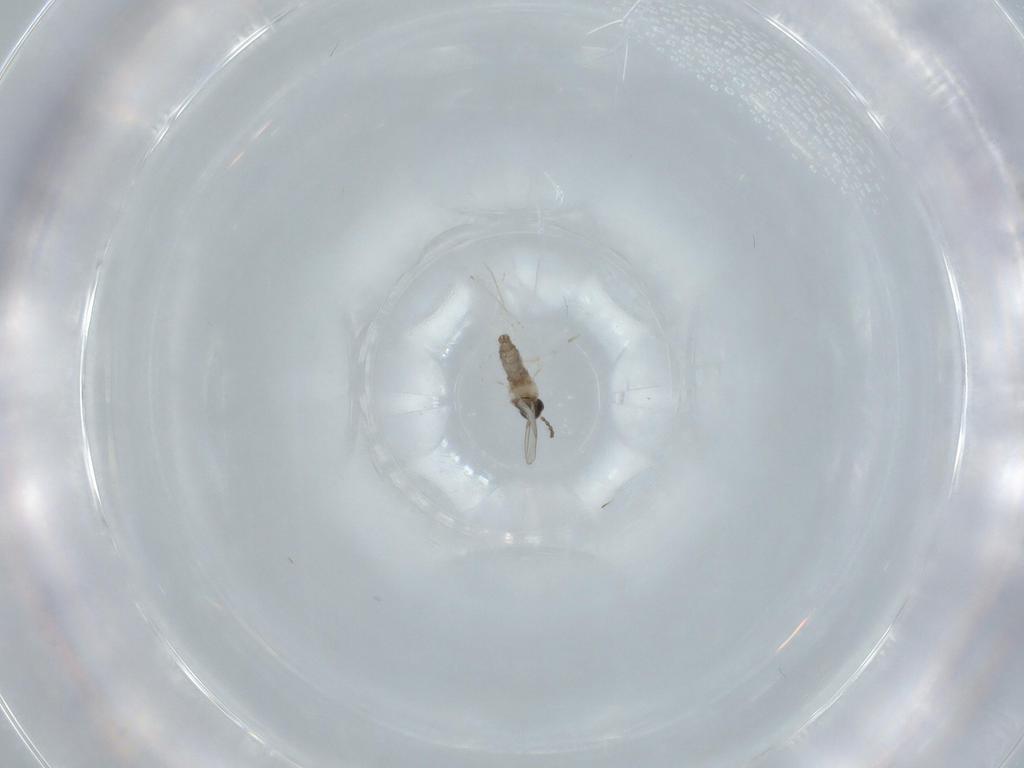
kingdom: Animalia
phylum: Arthropoda
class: Insecta
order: Diptera
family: Cecidomyiidae
